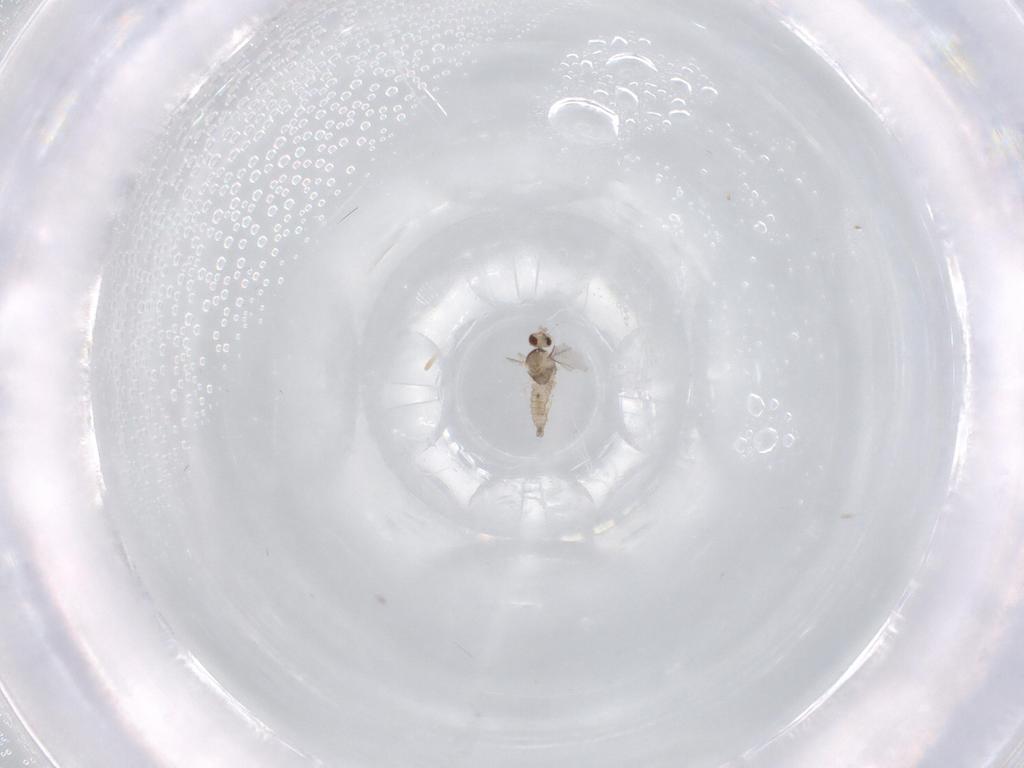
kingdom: Animalia
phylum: Arthropoda
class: Insecta
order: Diptera
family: Cecidomyiidae
